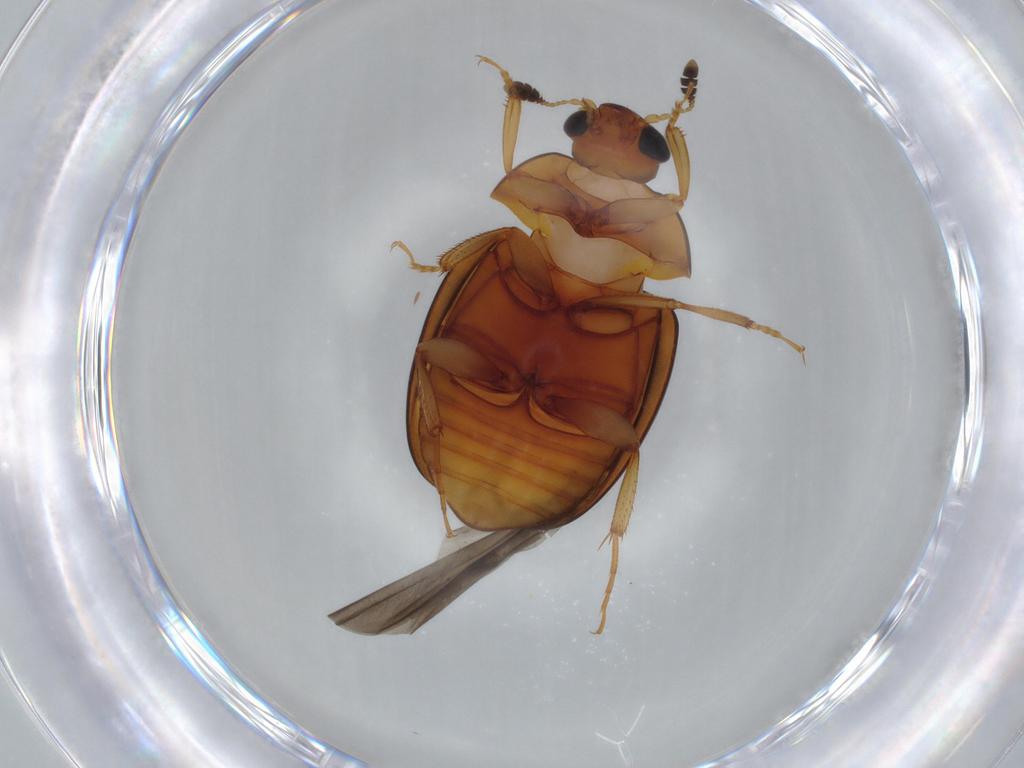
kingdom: Animalia
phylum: Arthropoda
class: Insecta
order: Coleoptera
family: Nitidulidae
